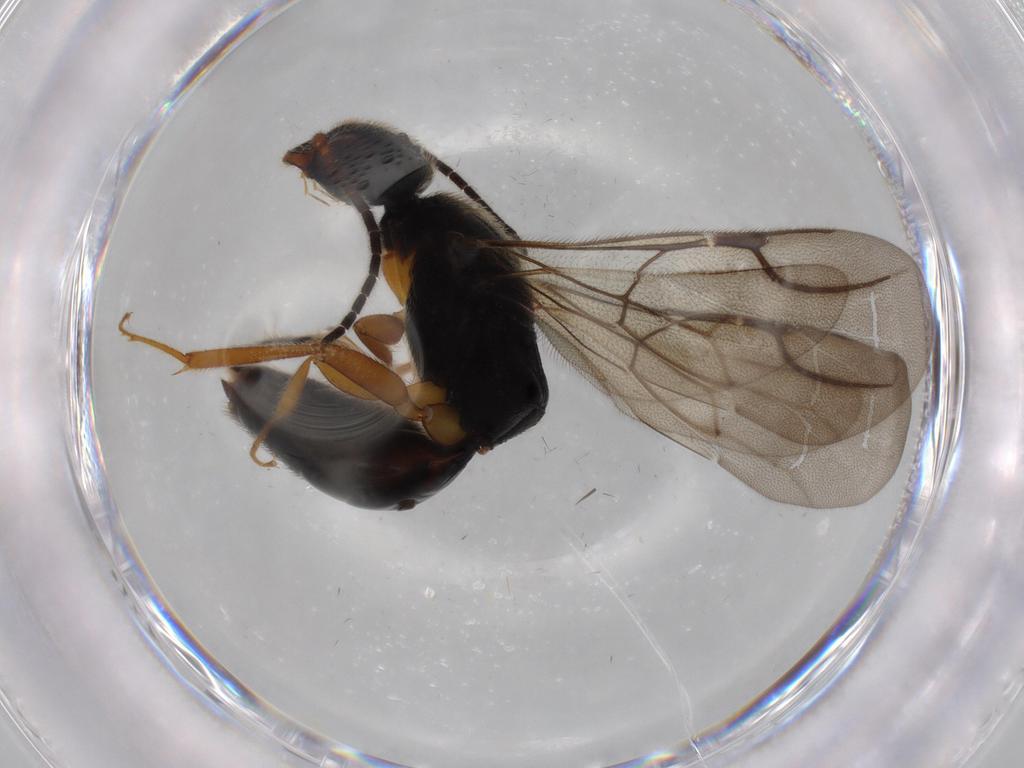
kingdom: Animalia
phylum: Arthropoda
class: Insecta
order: Hymenoptera
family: Bethylidae
